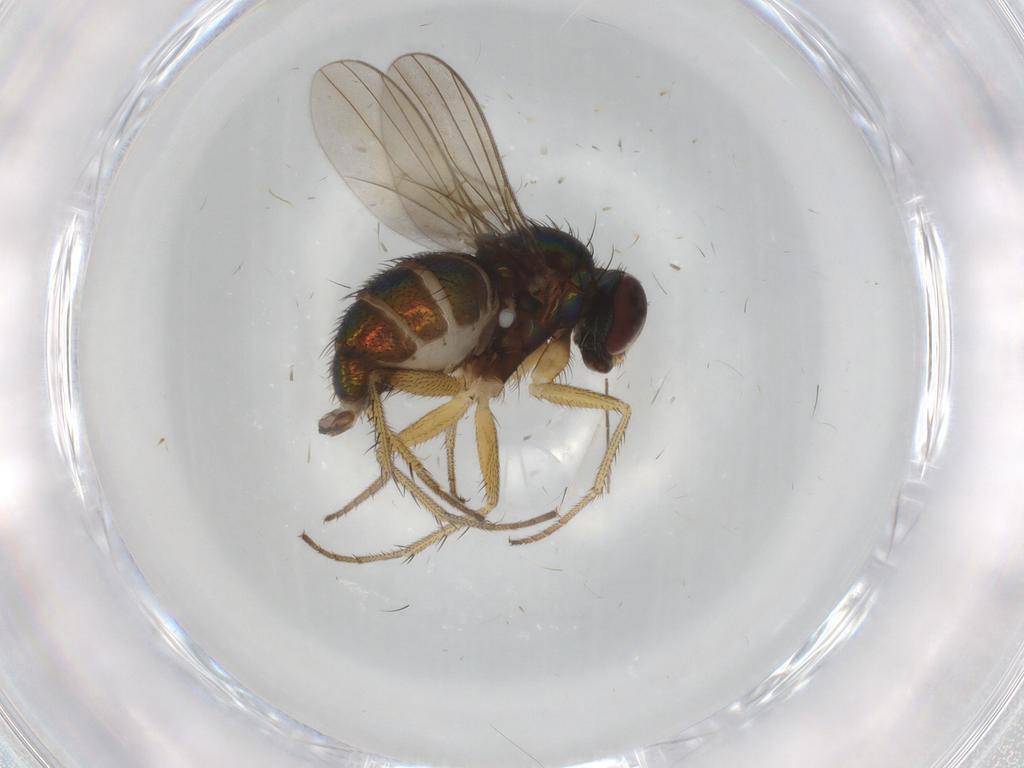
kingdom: Animalia
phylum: Arthropoda
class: Insecta
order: Diptera
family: Dolichopodidae
